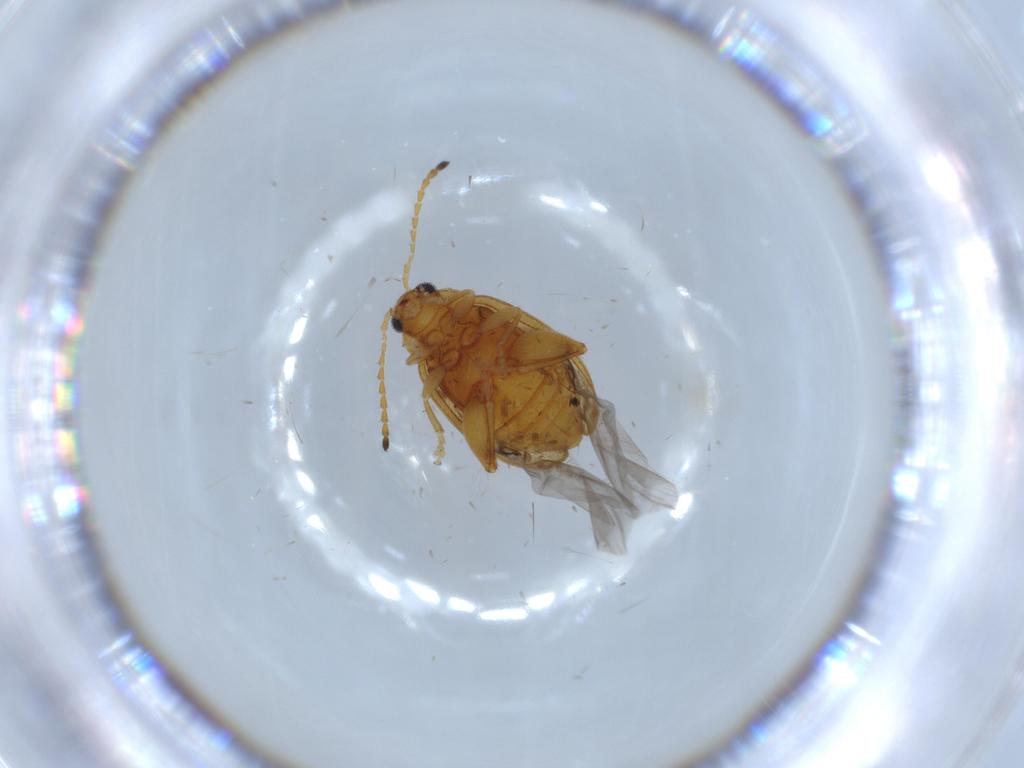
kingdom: Animalia
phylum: Arthropoda
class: Insecta
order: Coleoptera
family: Chrysomelidae
